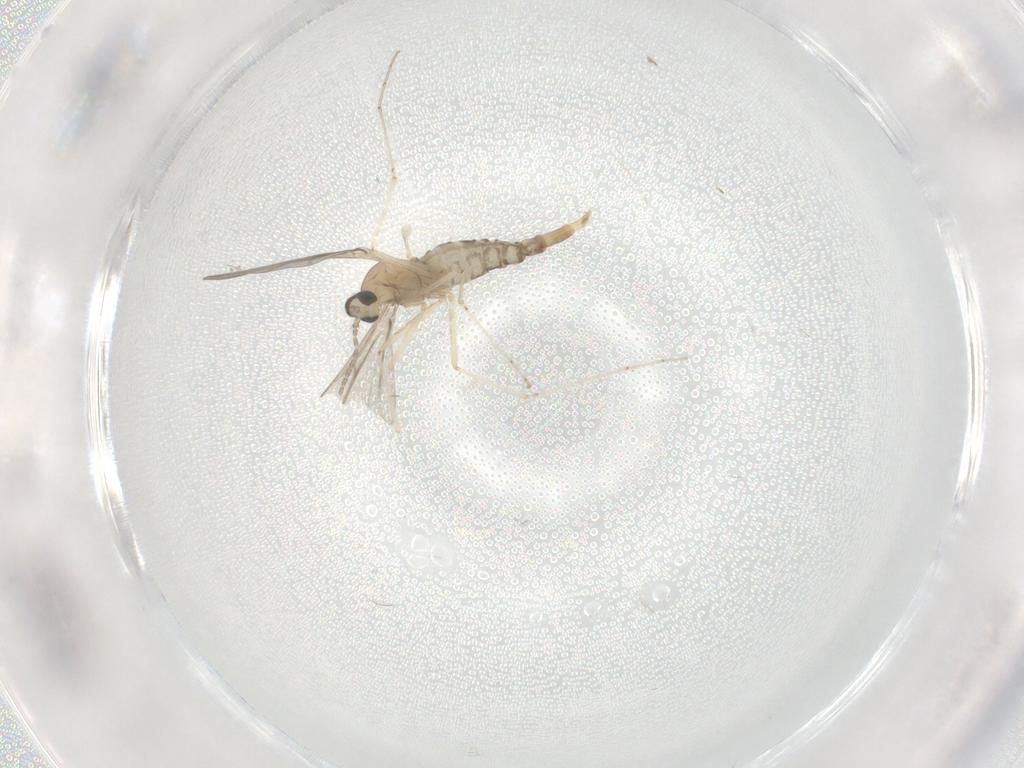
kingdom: Animalia
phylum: Arthropoda
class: Insecta
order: Diptera
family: Cecidomyiidae
